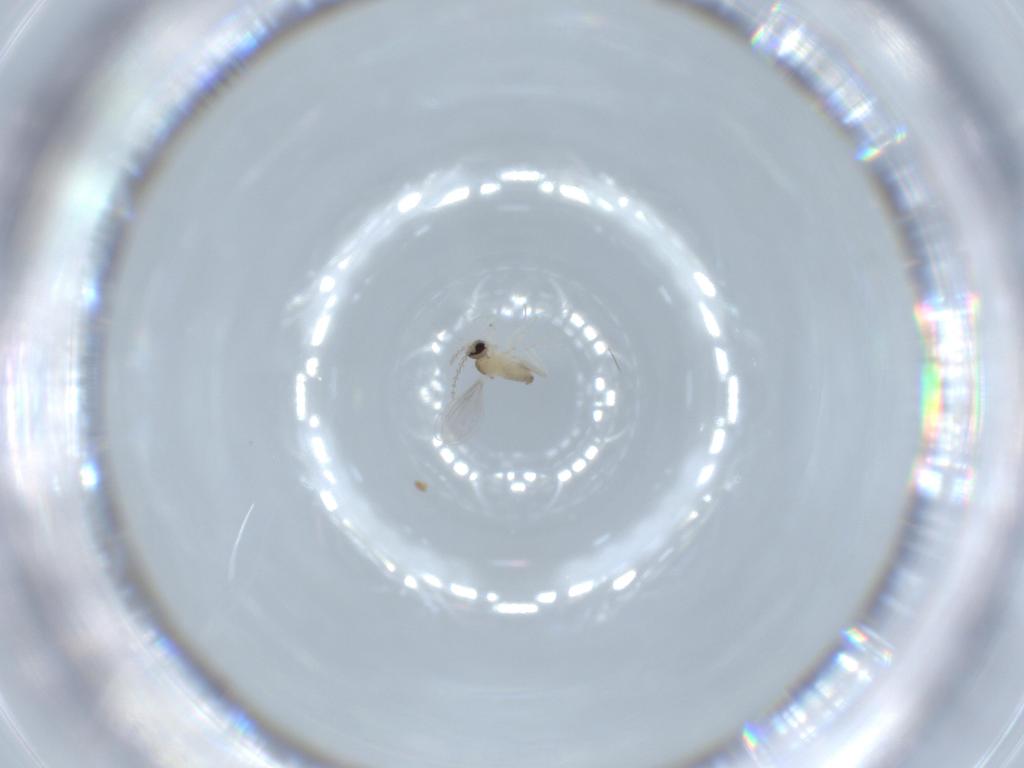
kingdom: Animalia
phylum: Arthropoda
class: Insecta
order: Diptera
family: Cecidomyiidae
